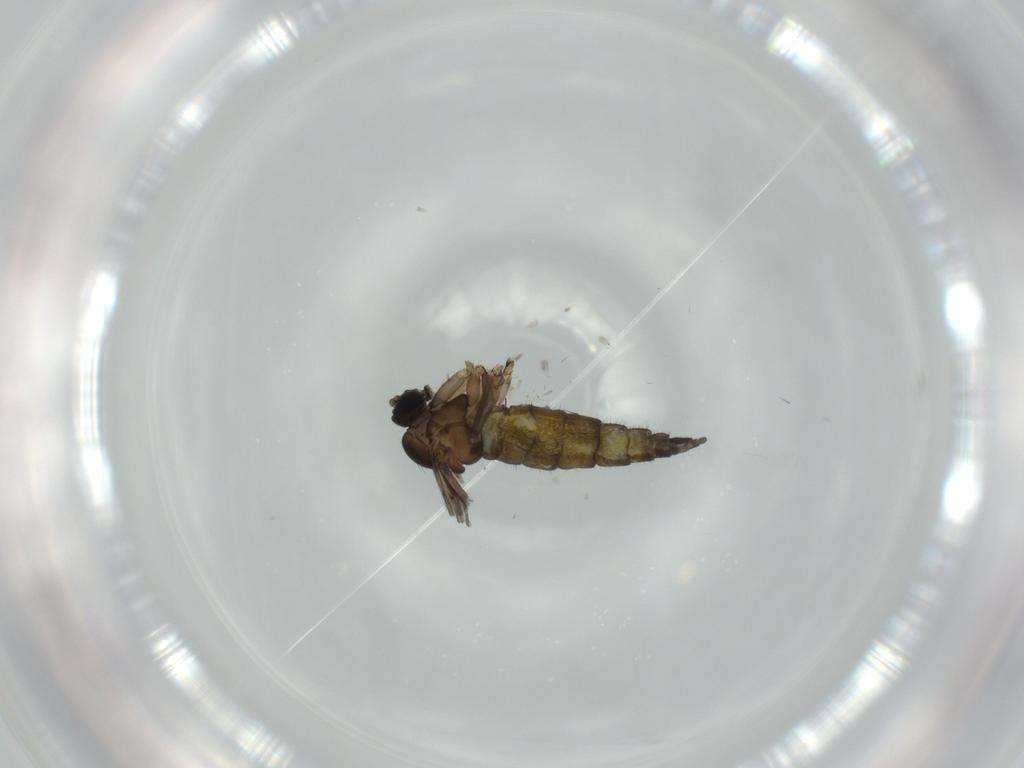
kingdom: Animalia
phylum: Arthropoda
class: Insecta
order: Diptera
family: Sciaridae
